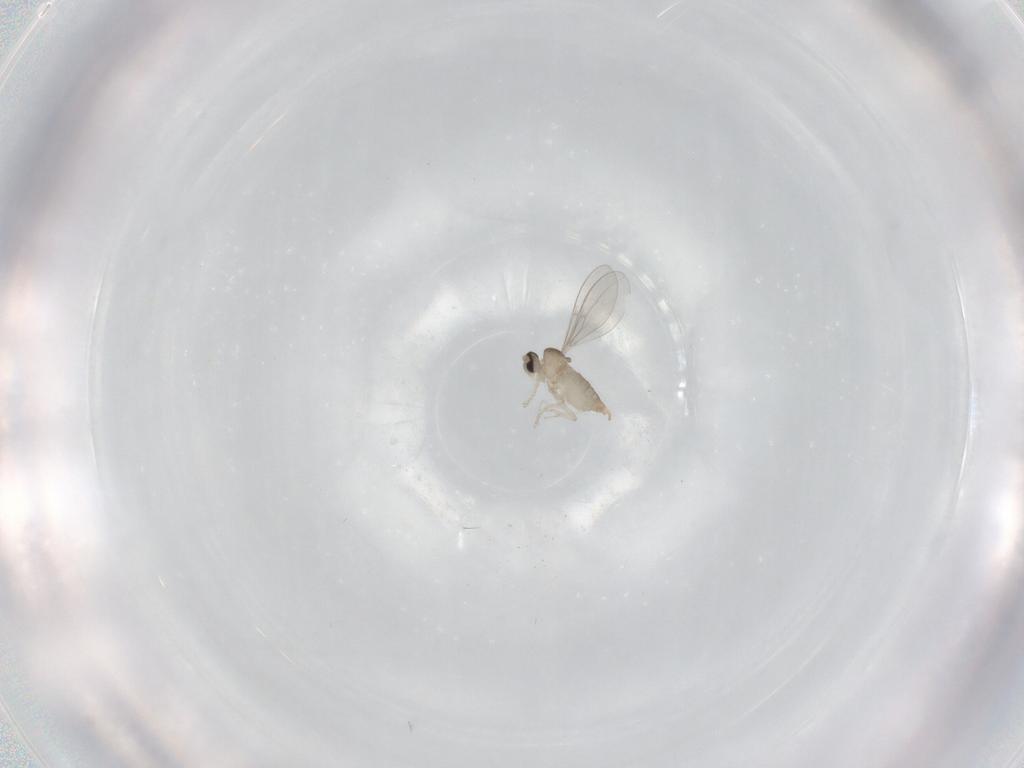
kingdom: Animalia
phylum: Arthropoda
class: Insecta
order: Diptera
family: Cecidomyiidae
